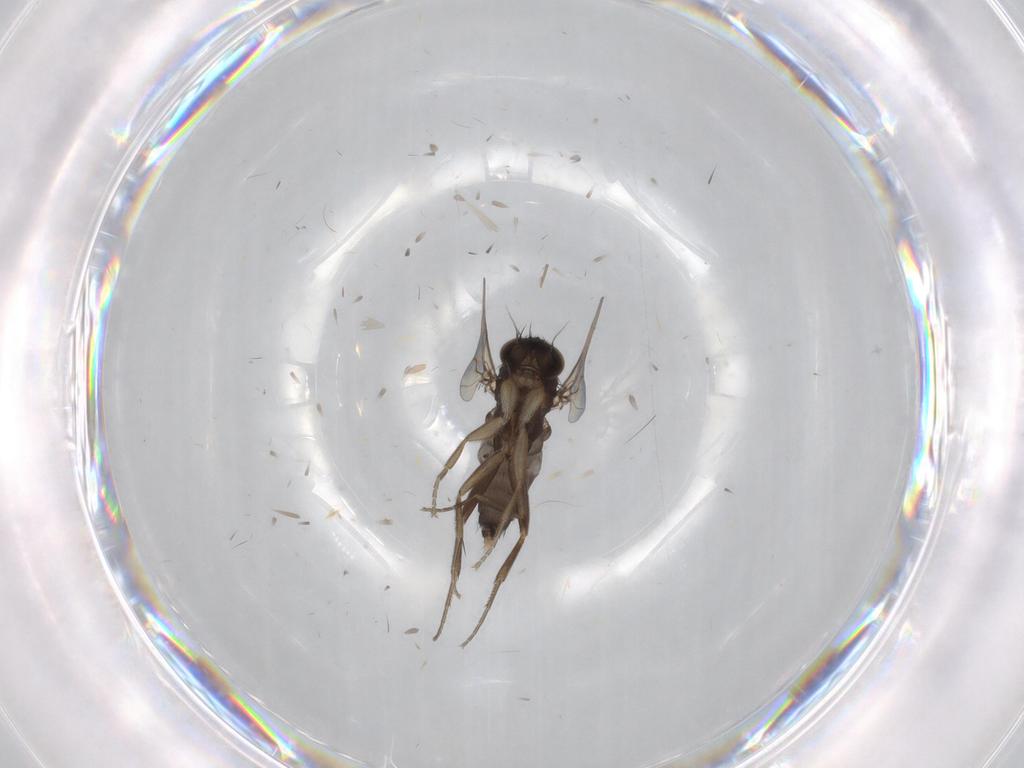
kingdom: Animalia
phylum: Arthropoda
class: Insecta
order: Diptera
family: Phoridae
